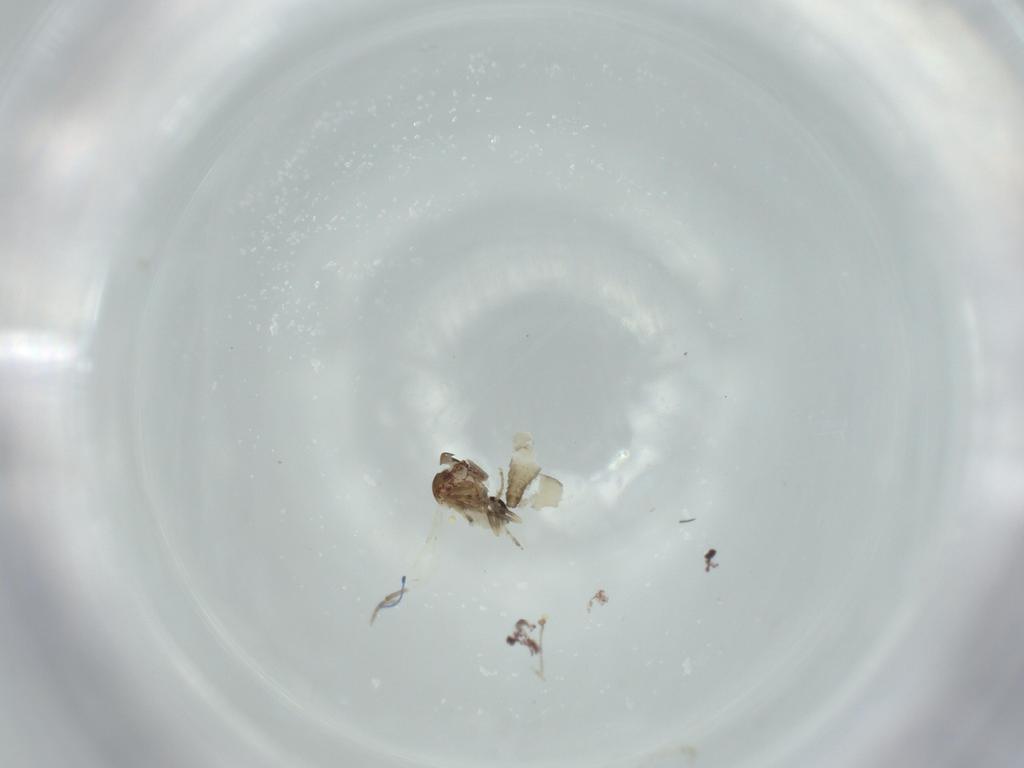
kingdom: Animalia
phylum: Arthropoda
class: Insecta
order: Diptera
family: Ceratopogonidae
